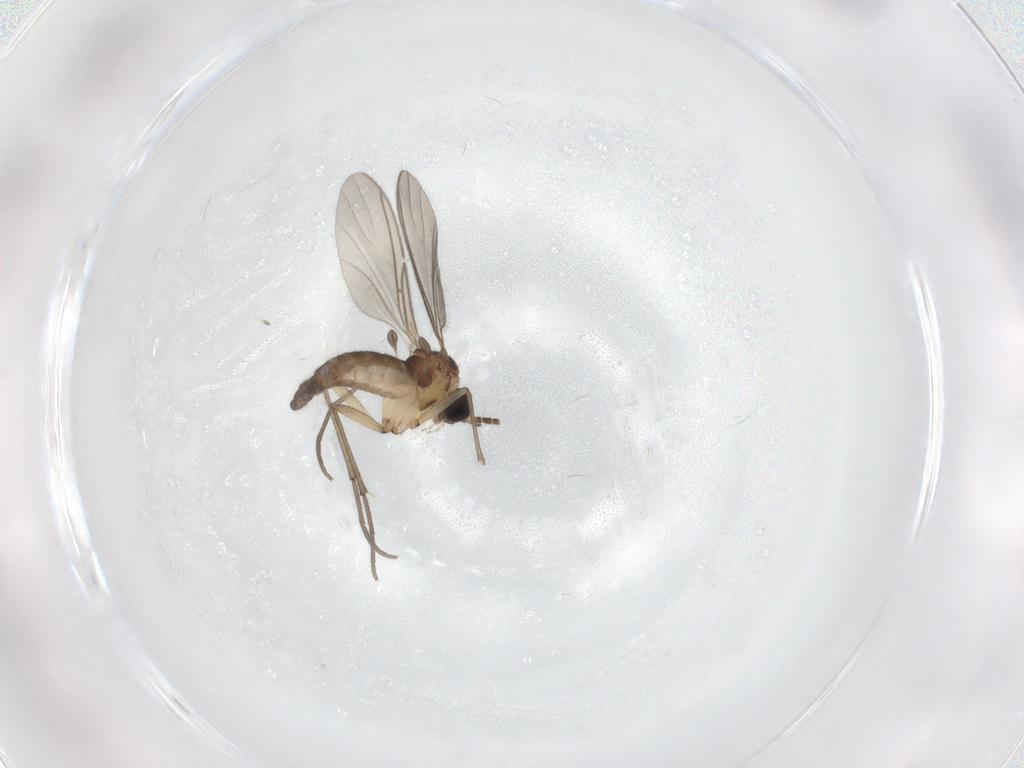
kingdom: Animalia
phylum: Arthropoda
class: Insecta
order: Diptera
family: Sciaridae
